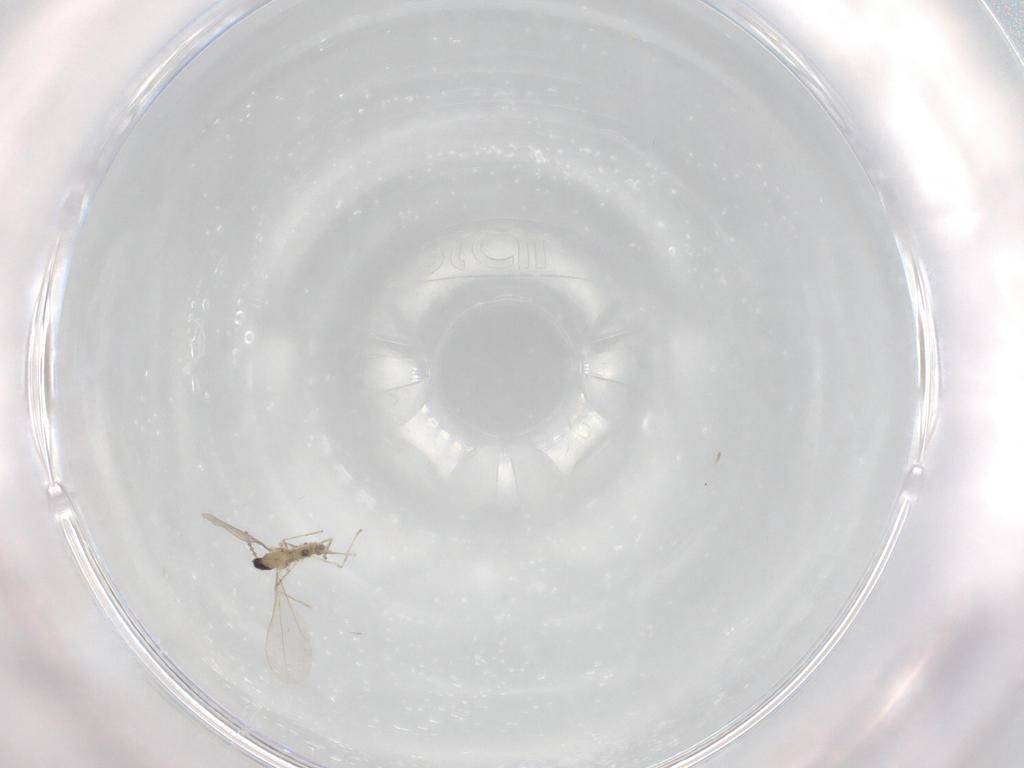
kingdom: Animalia
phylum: Arthropoda
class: Insecta
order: Diptera
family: Cecidomyiidae
